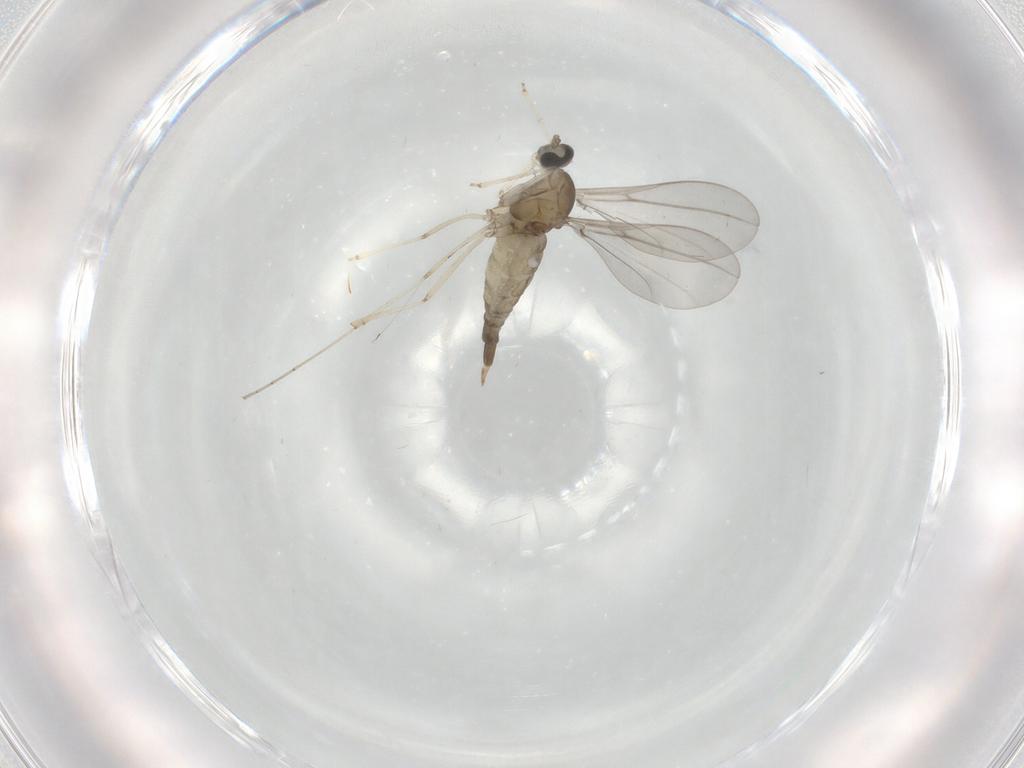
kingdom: Animalia
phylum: Arthropoda
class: Insecta
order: Diptera
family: Cecidomyiidae
